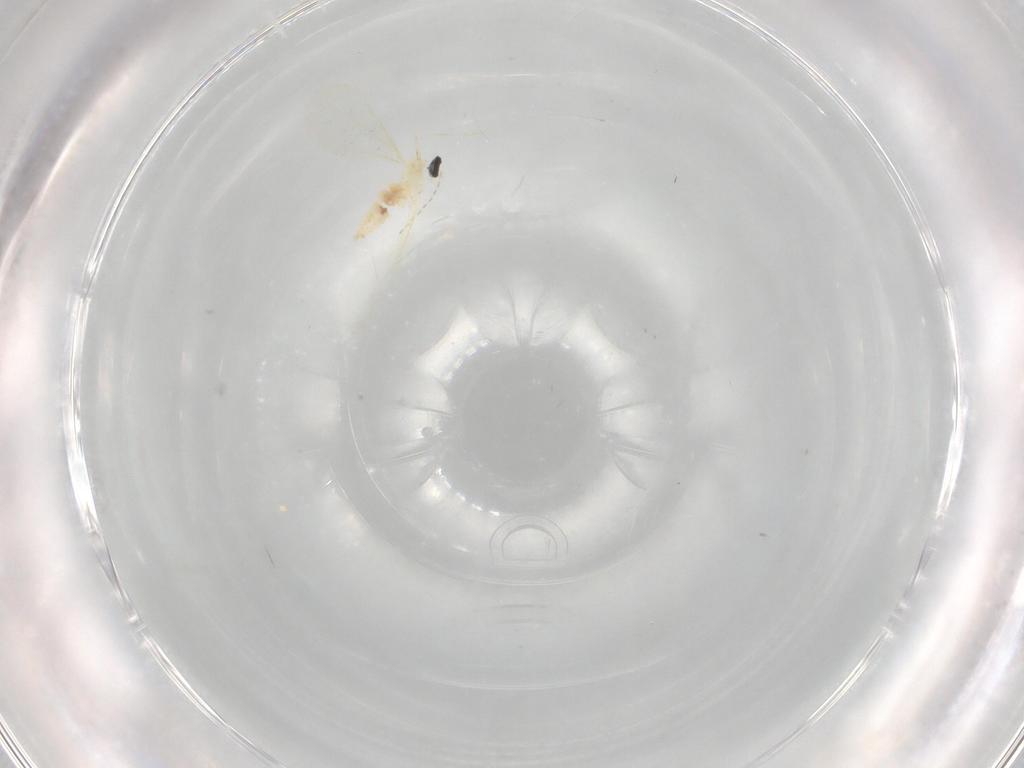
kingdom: Animalia
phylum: Arthropoda
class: Insecta
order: Diptera
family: Cecidomyiidae
